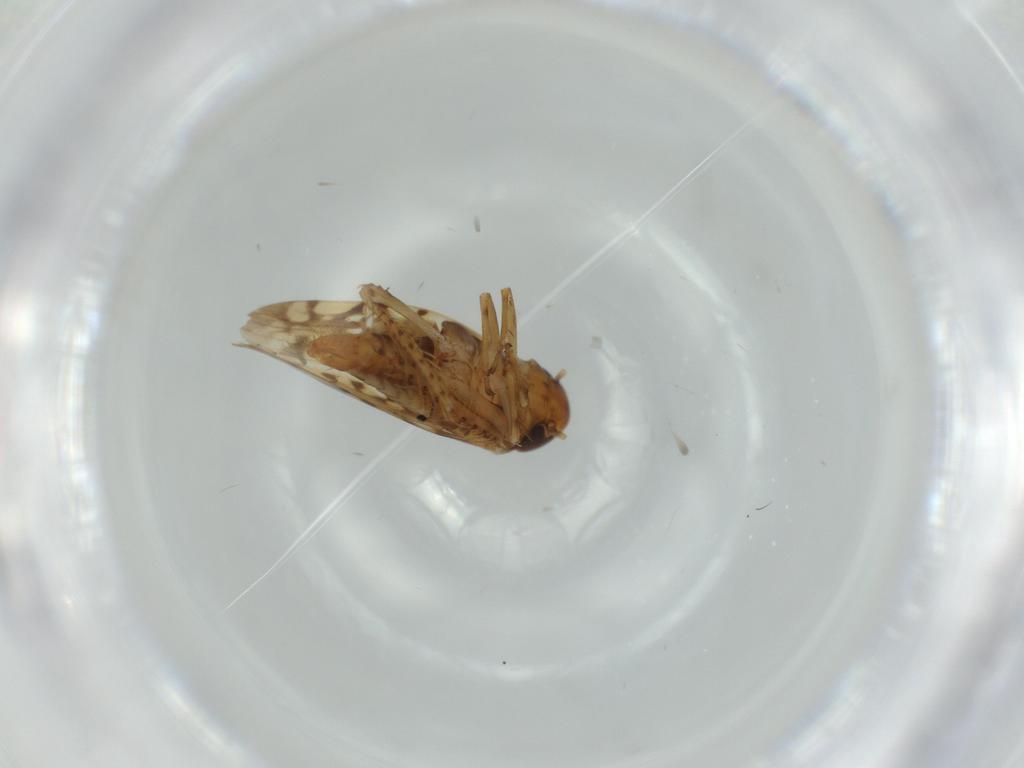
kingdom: Animalia
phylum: Arthropoda
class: Insecta
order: Hemiptera
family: Cicadellidae
